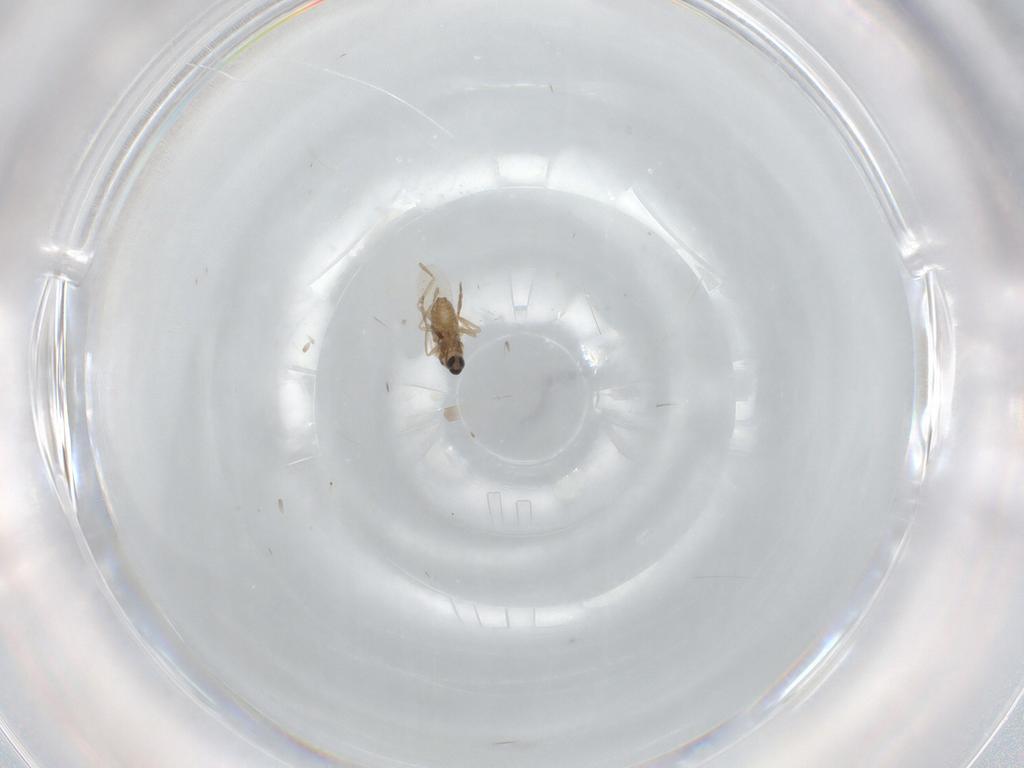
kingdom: Animalia
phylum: Arthropoda
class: Insecta
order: Diptera
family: Cecidomyiidae
